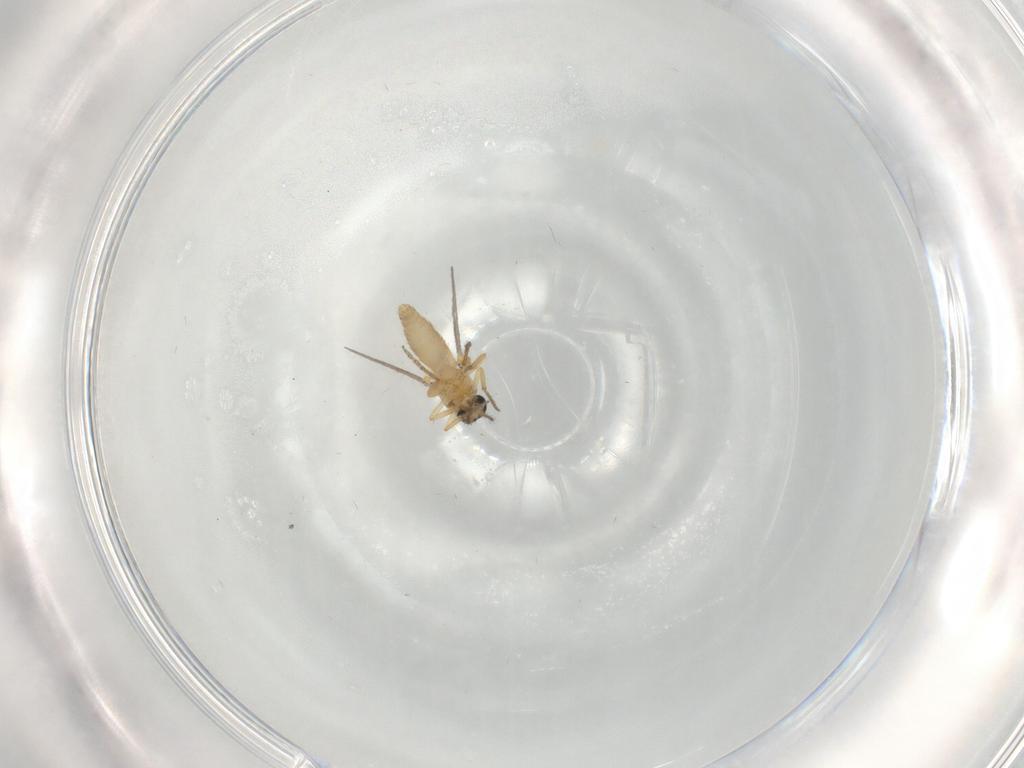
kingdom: Animalia
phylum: Arthropoda
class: Insecta
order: Diptera
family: Ceratopogonidae
